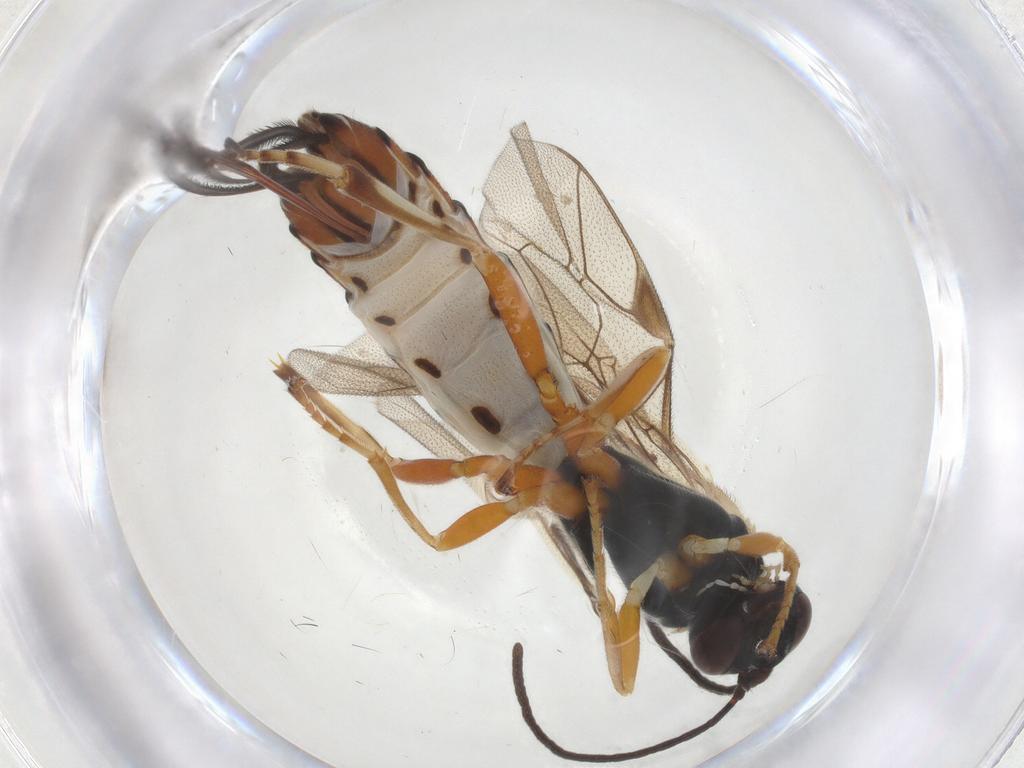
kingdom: Animalia
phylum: Arthropoda
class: Insecta
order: Hymenoptera
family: Ichneumonidae
